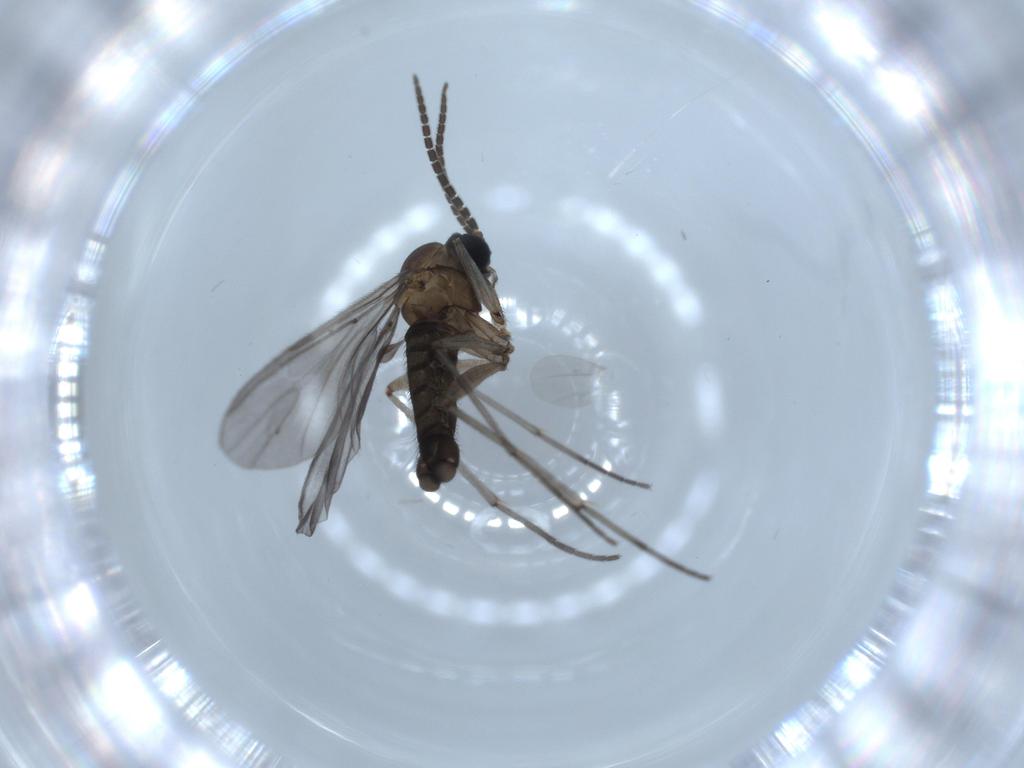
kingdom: Animalia
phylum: Arthropoda
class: Insecta
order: Diptera
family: Sciaridae
